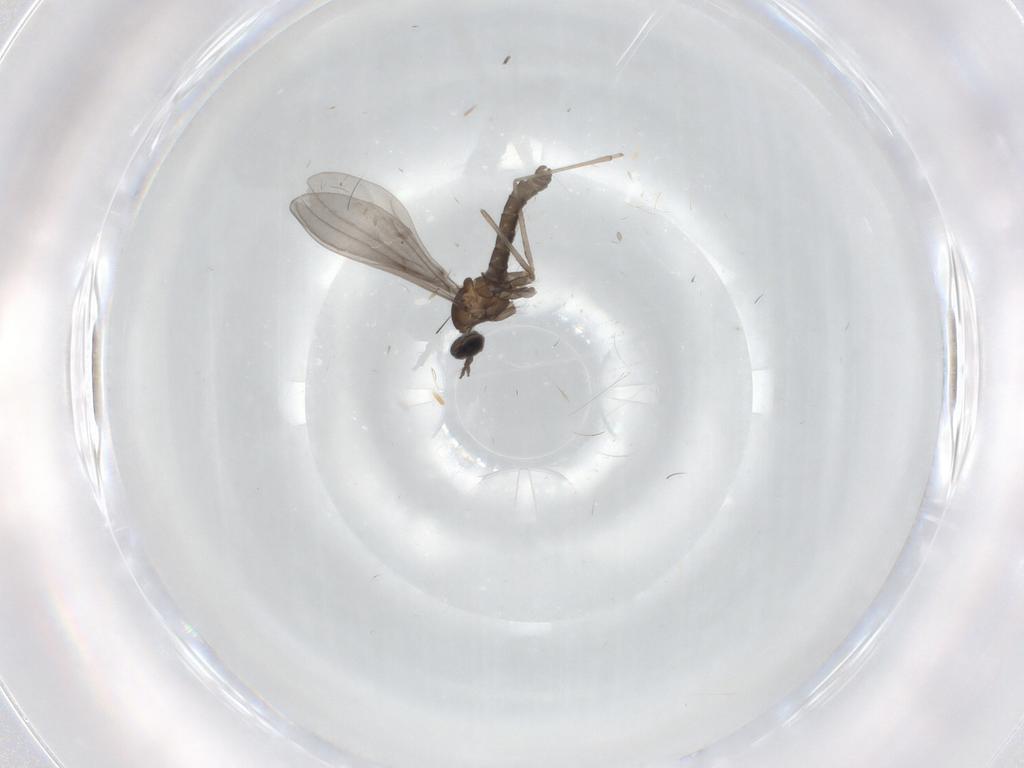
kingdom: Animalia
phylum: Arthropoda
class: Insecta
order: Diptera
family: Cecidomyiidae
